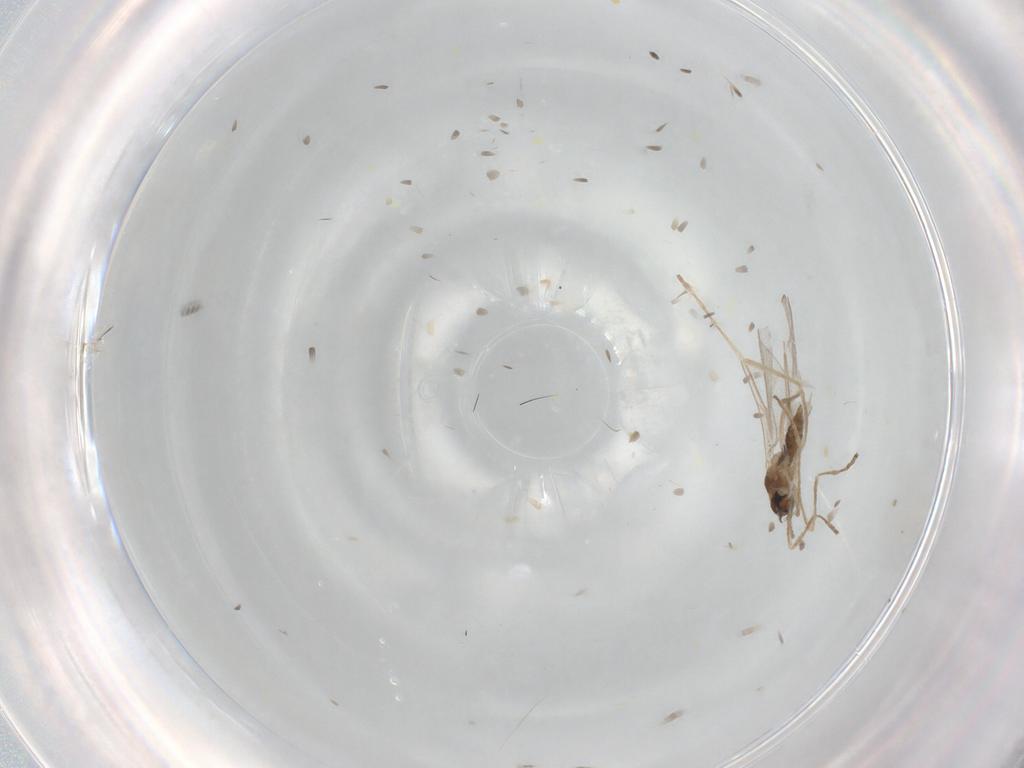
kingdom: Animalia
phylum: Arthropoda
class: Insecta
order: Diptera
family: Cecidomyiidae
